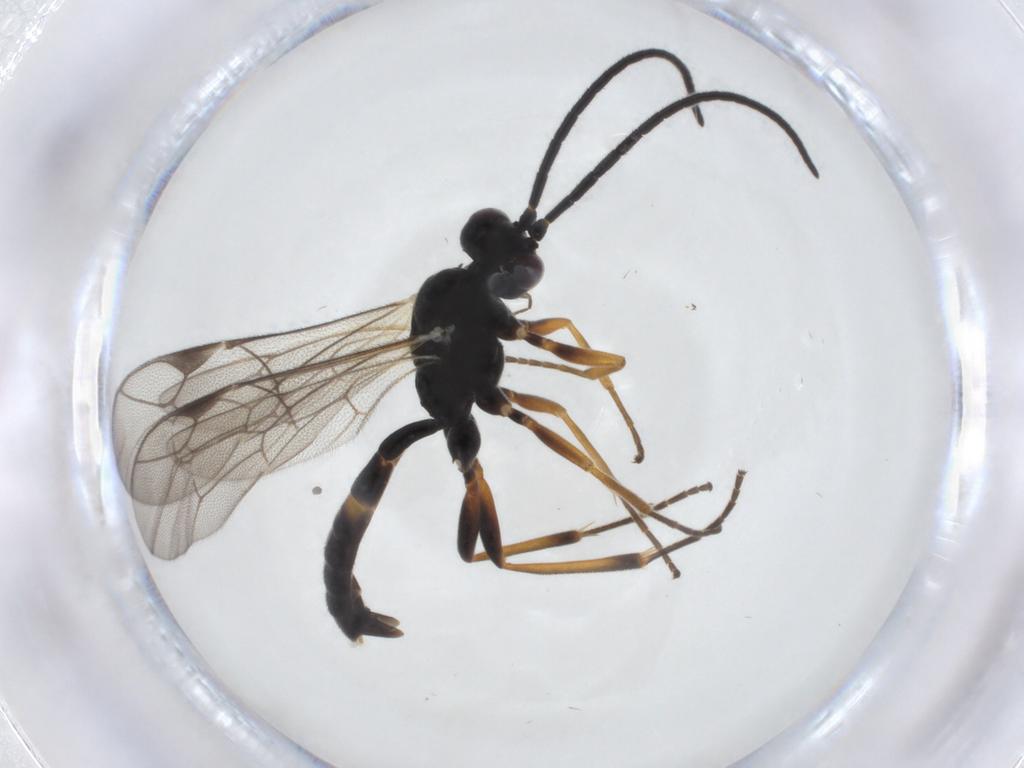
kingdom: Animalia
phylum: Arthropoda
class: Insecta
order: Hymenoptera
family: Ichneumonidae
